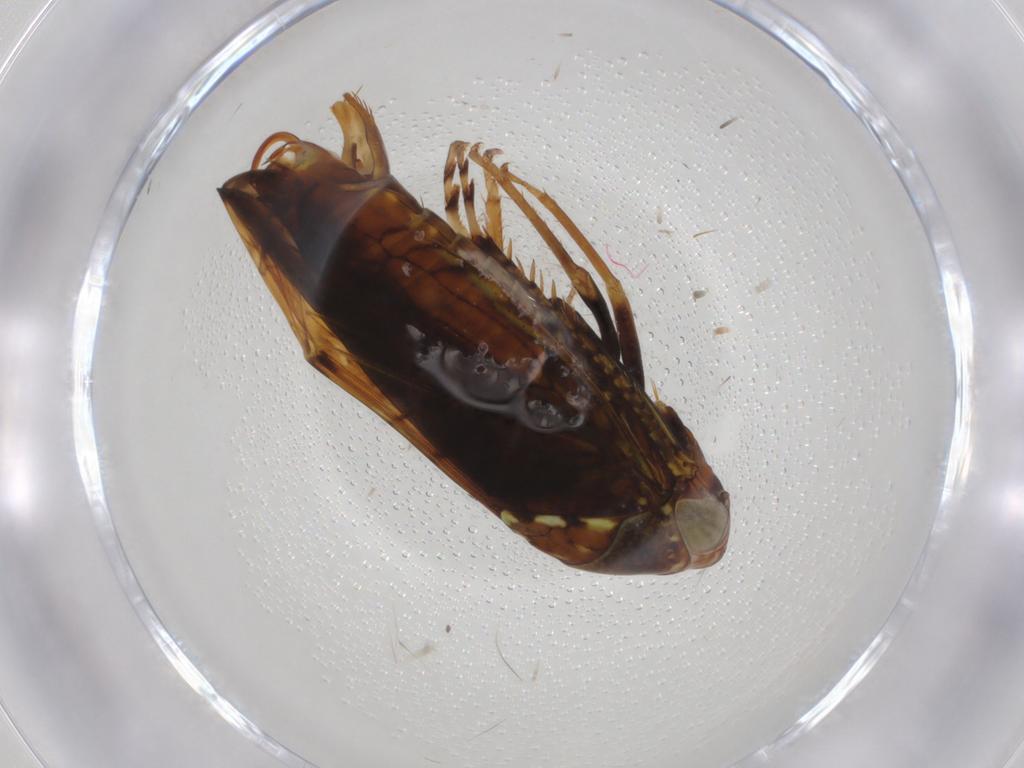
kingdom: Animalia
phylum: Arthropoda
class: Insecta
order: Hemiptera
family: Cicadellidae
